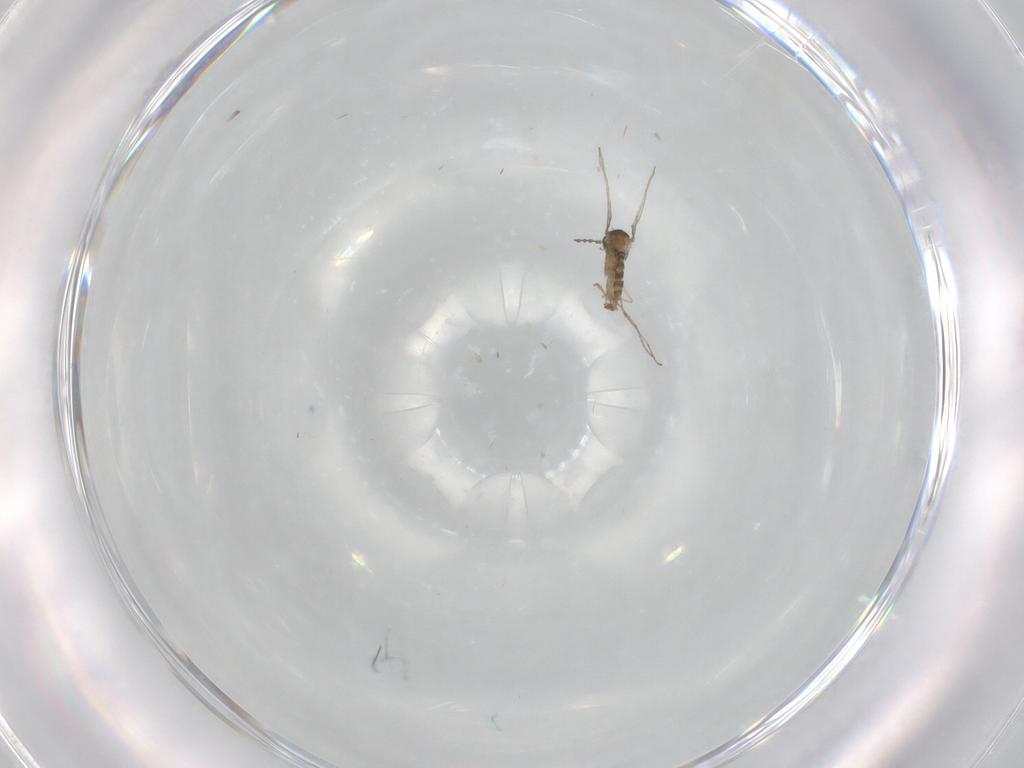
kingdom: Animalia
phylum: Arthropoda
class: Insecta
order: Diptera
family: Cecidomyiidae
